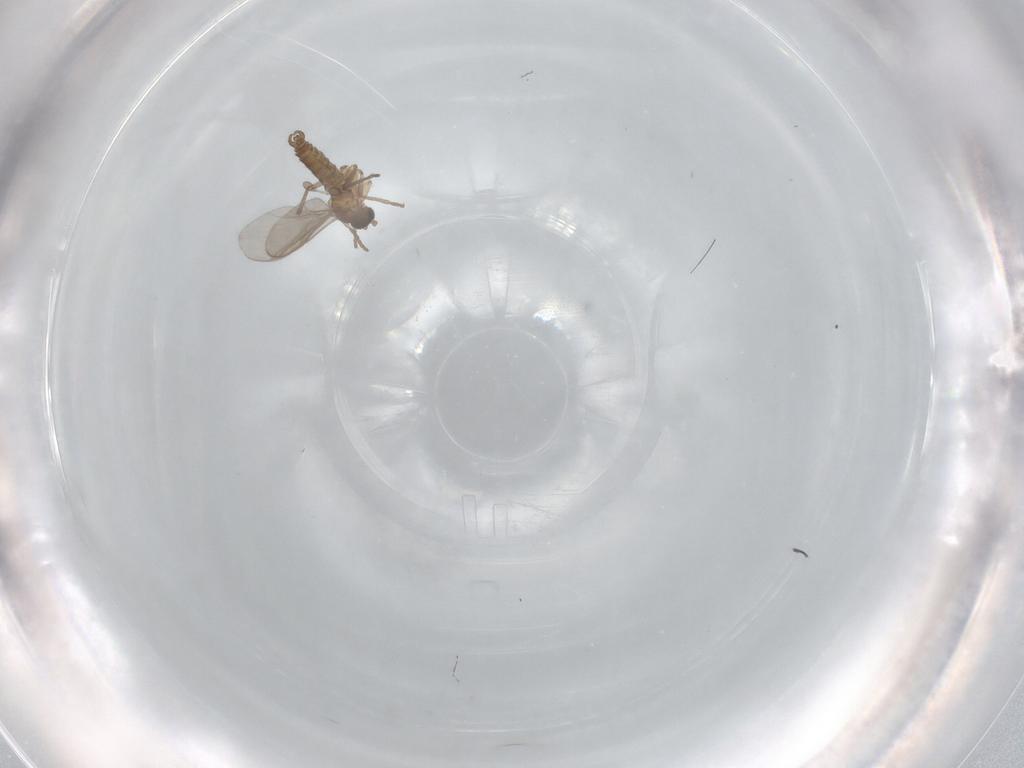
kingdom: Animalia
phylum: Arthropoda
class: Insecta
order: Diptera
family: Sciaridae
